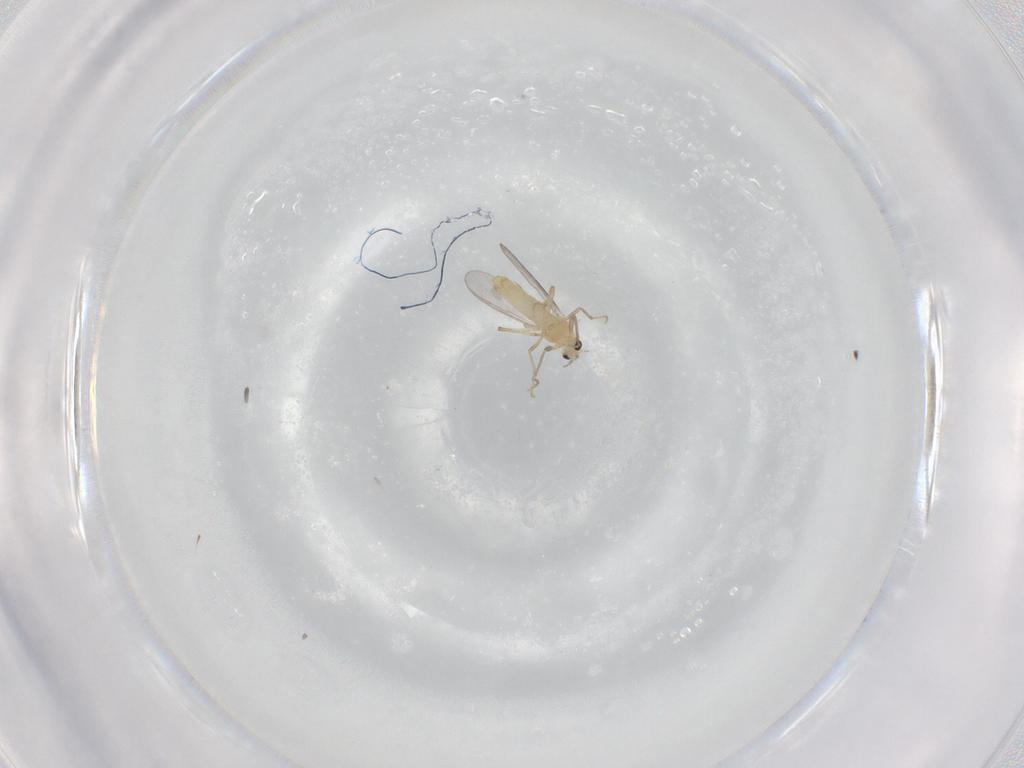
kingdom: Animalia
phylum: Arthropoda
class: Insecta
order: Diptera
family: Chironomidae
